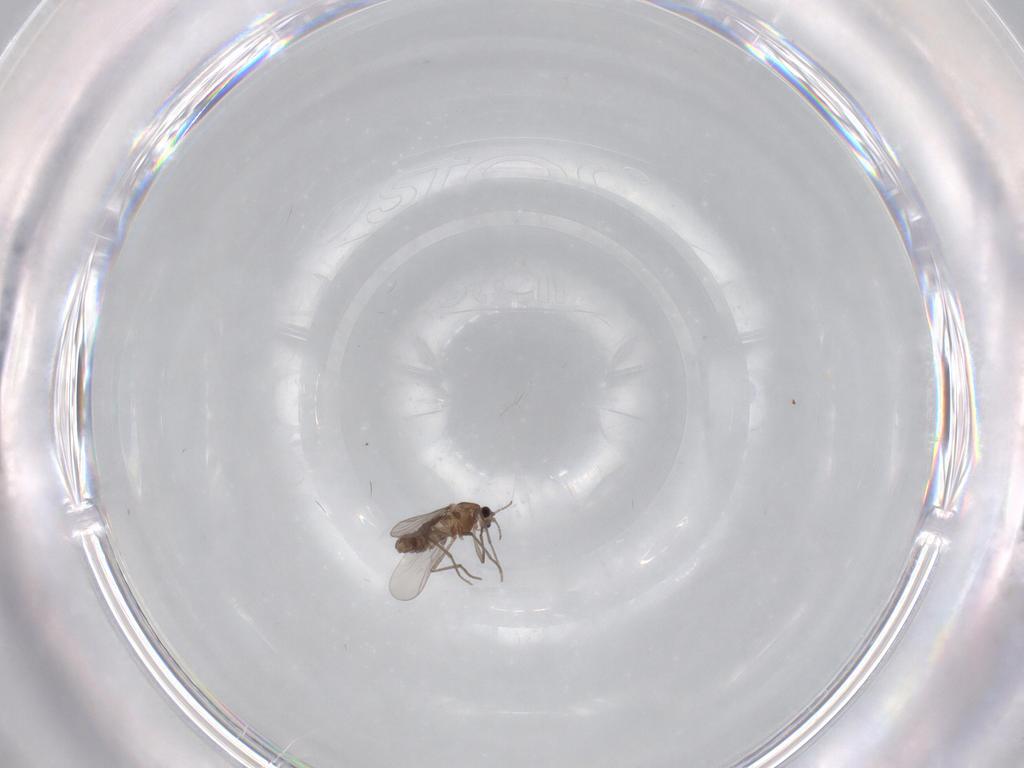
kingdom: Animalia
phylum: Arthropoda
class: Insecta
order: Diptera
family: Chironomidae
